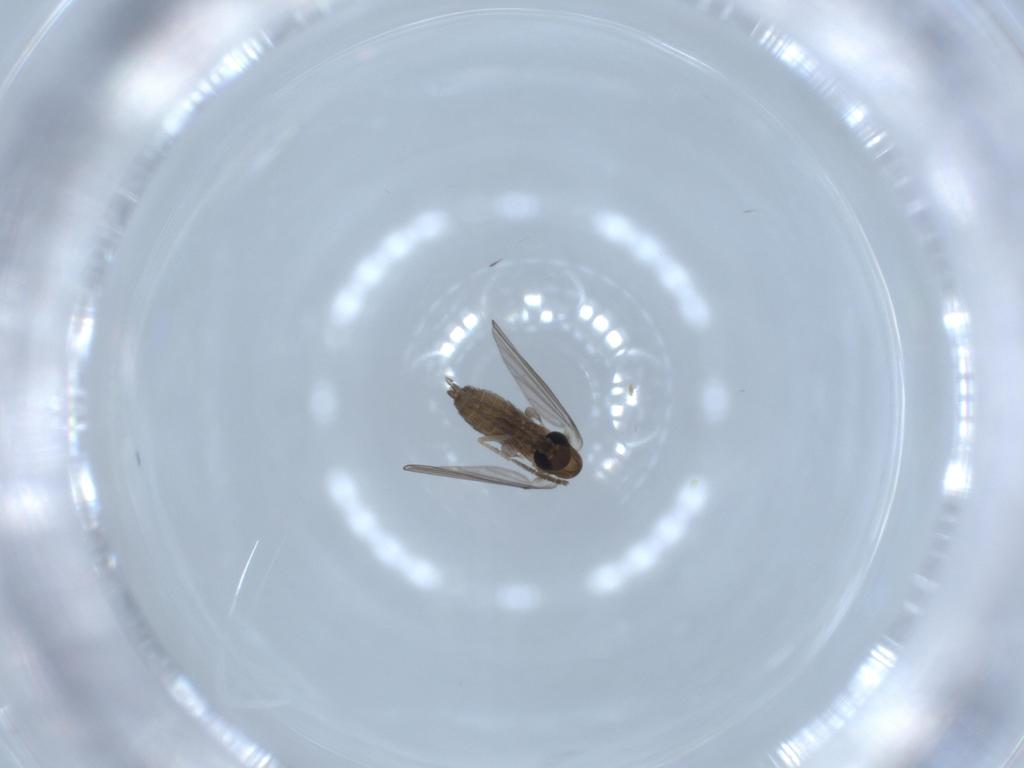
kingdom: Animalia
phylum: Arthropoda
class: Insecta
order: Diptera
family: Psychodidae
